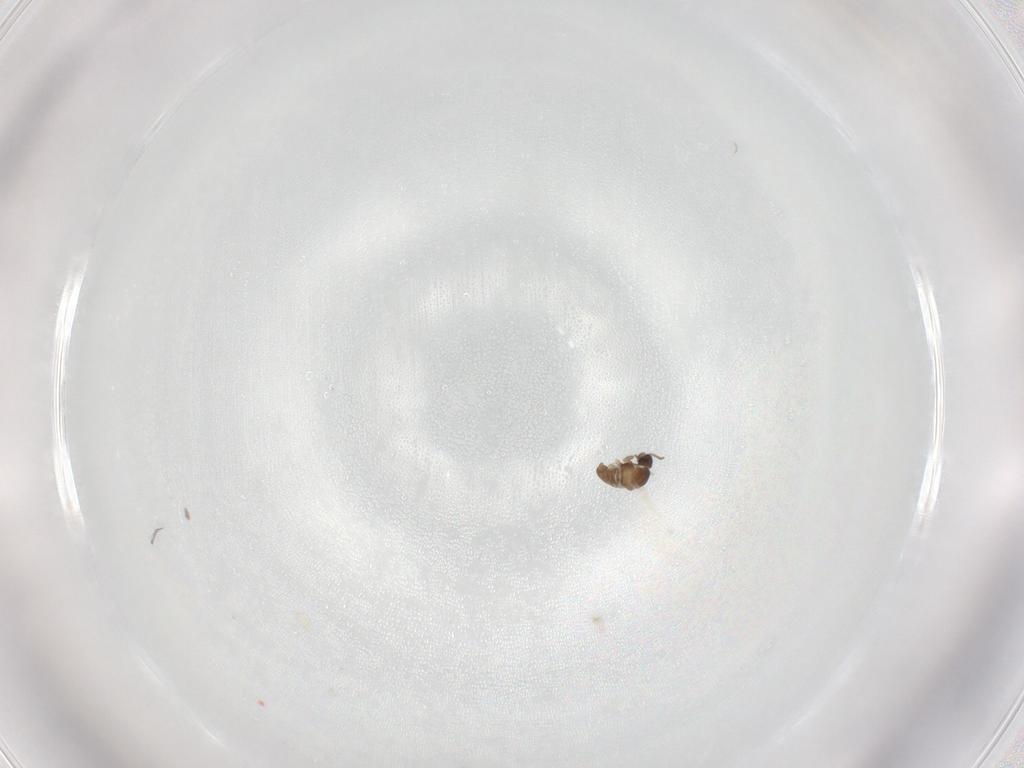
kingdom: Animalia
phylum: Arthropoda
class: Insecta
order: Diptera
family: Cecidomyiidae
